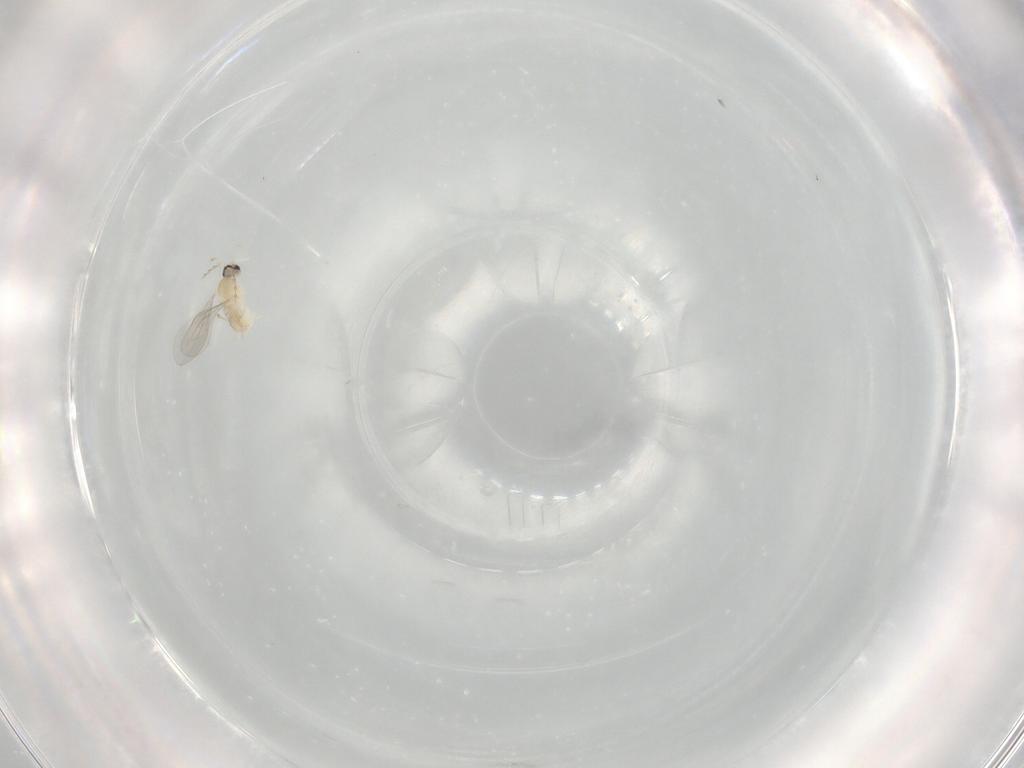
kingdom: Animalia
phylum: Arthropoda
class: Insecta
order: Diptera
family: Cecidomyiidae
